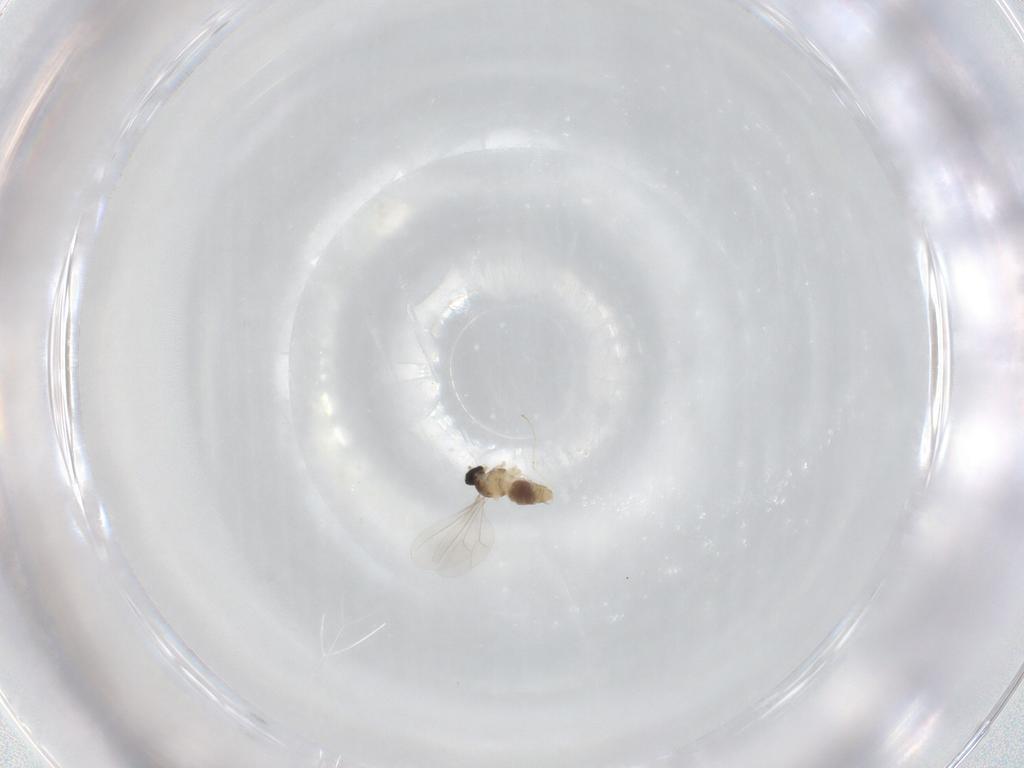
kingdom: Animalia
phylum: Arthropoda
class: Insecta
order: Diptera
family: Cecidomyiidae
